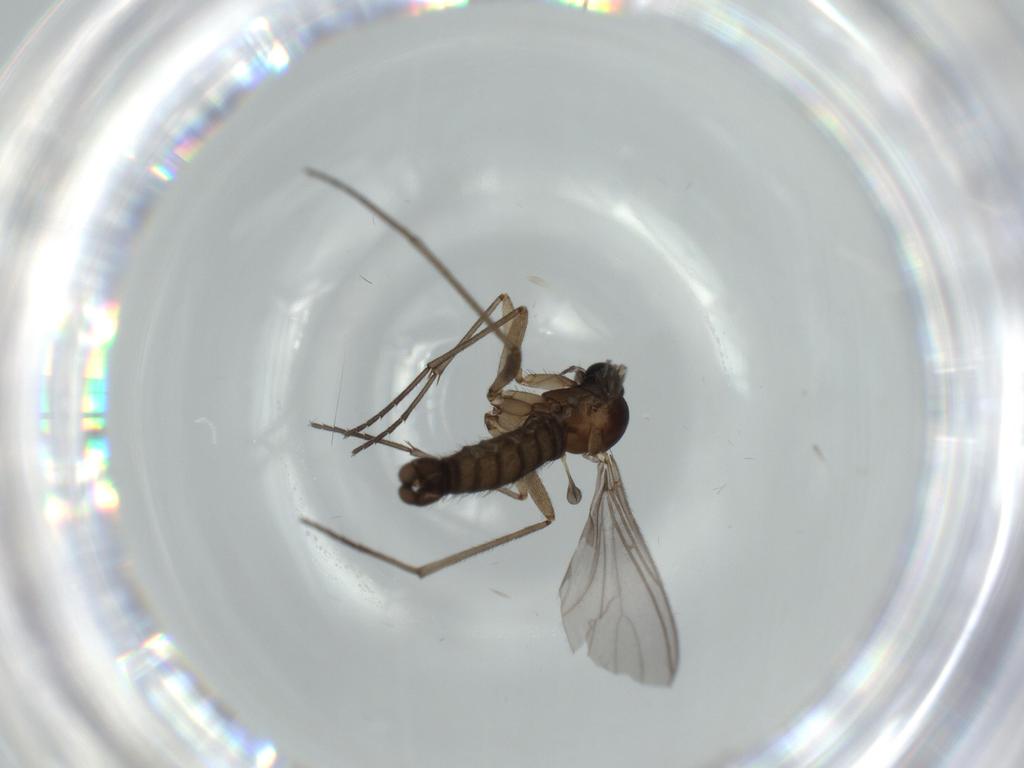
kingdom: Animalia
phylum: Arthropoda
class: Insecta
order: Diptera
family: Sciaridae
